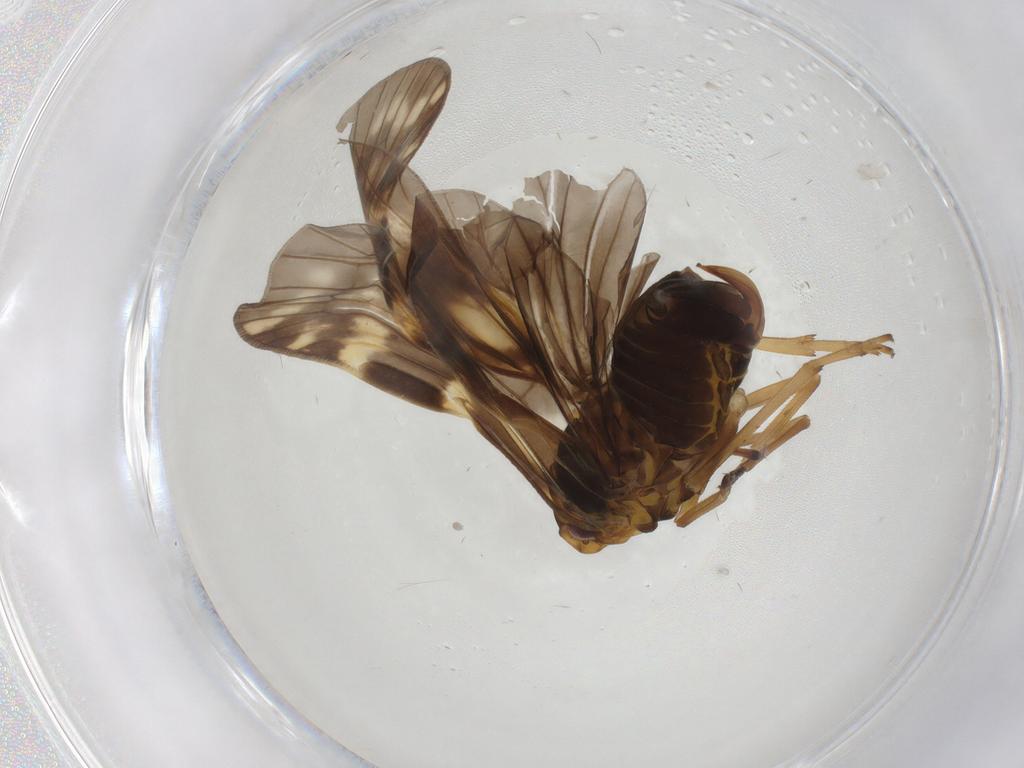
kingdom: Animalia
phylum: Arthropoda
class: Insecta
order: Hemiptera
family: Cixiidae
